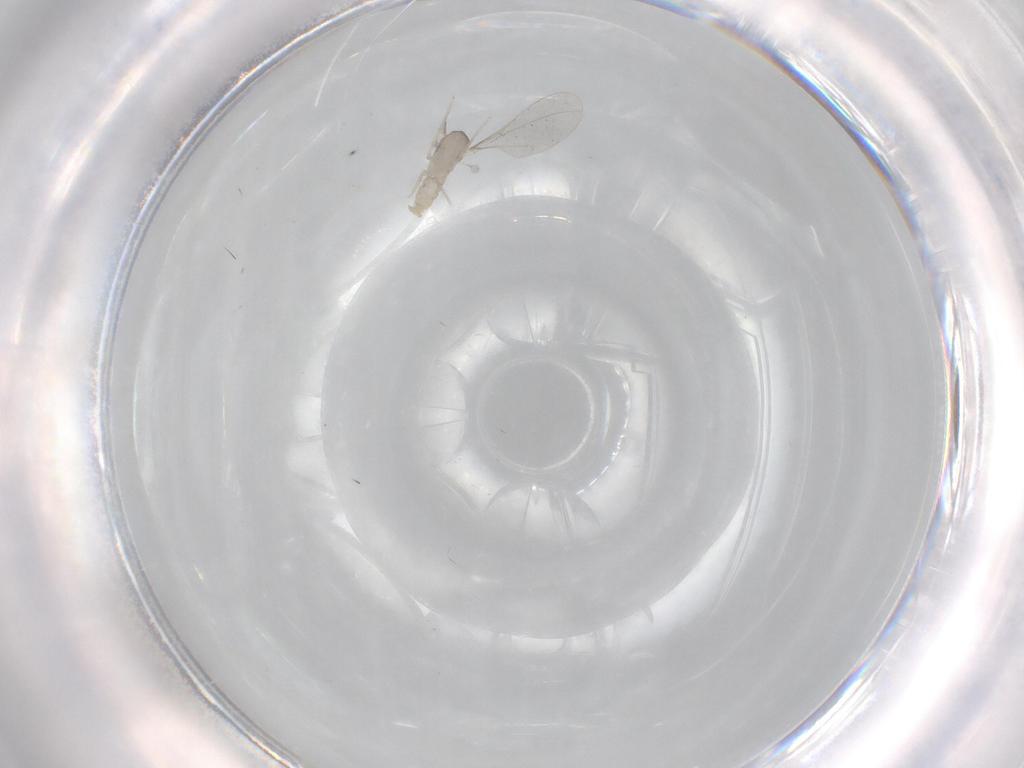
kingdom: Animalia
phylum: Arthropoda
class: Insecta
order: Diptera
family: Cecidomyiidae
